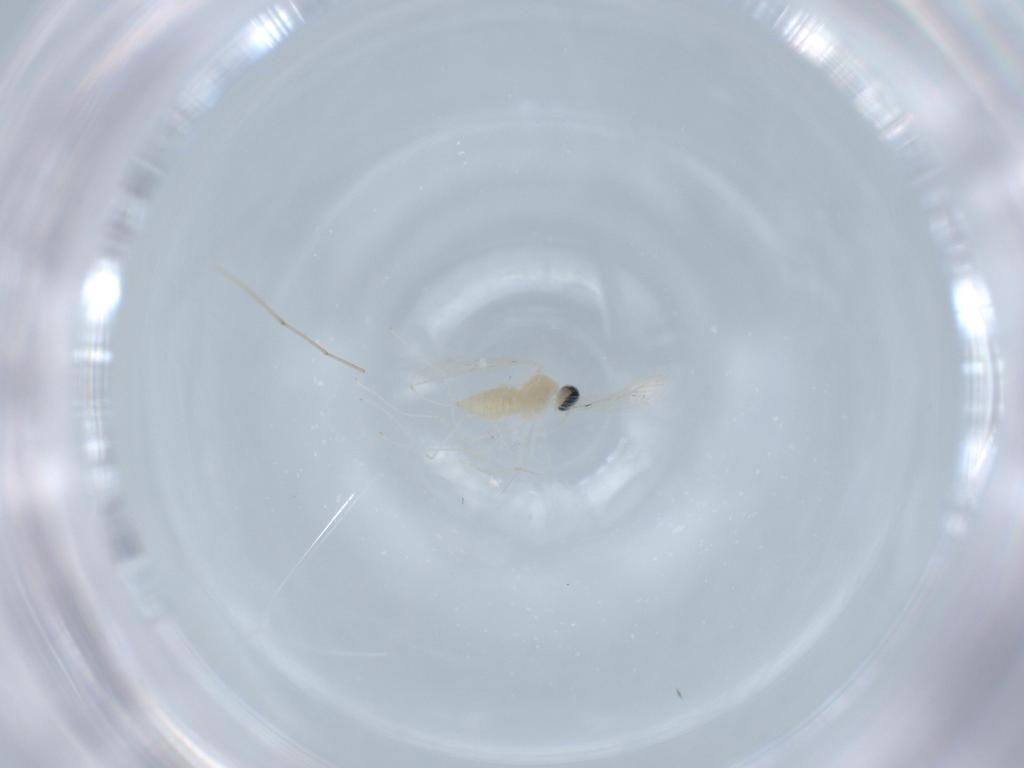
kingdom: Animalia
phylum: Arthropoda
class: Insecta
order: Diptera
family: Cecidomyiidae
